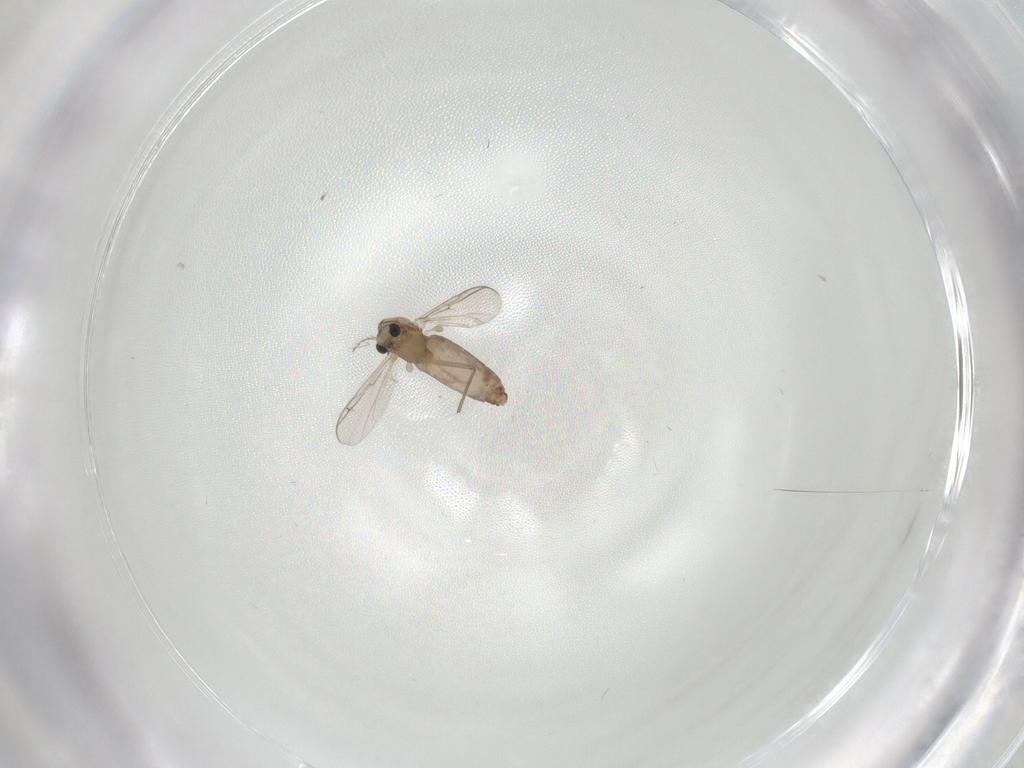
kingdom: Animalia
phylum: Arthropoda
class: Insecta
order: Diptera
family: Chironomidae
